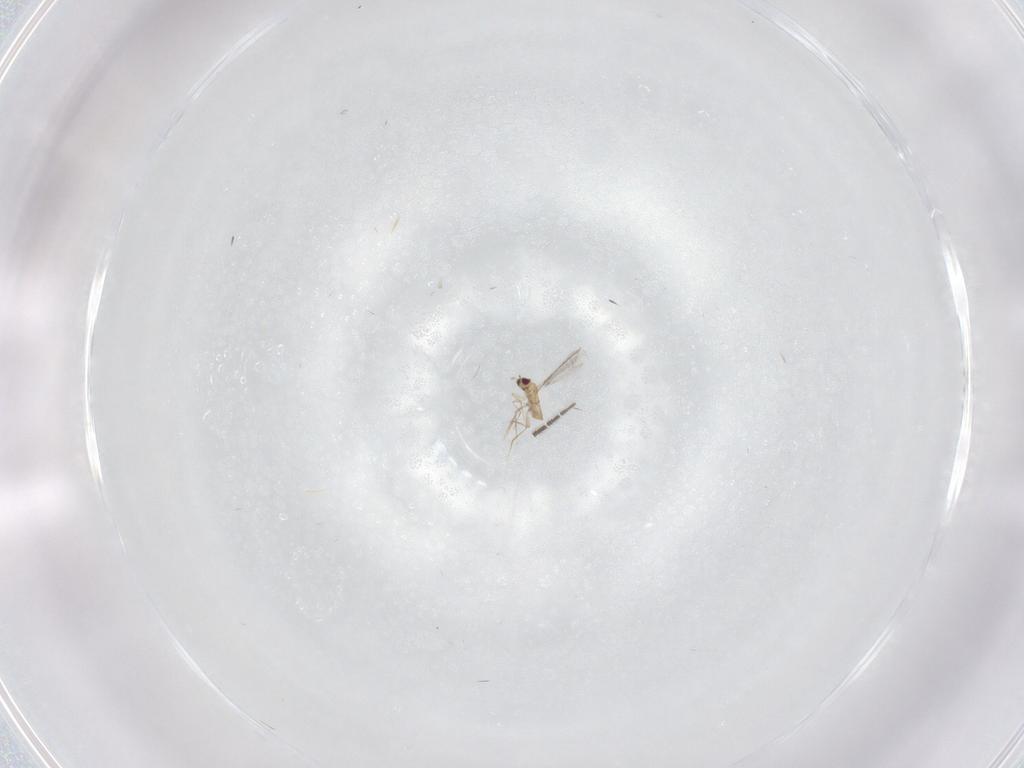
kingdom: Animalia
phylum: Arthropoda
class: Insecta
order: Hymenoptera
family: Mymaridae
